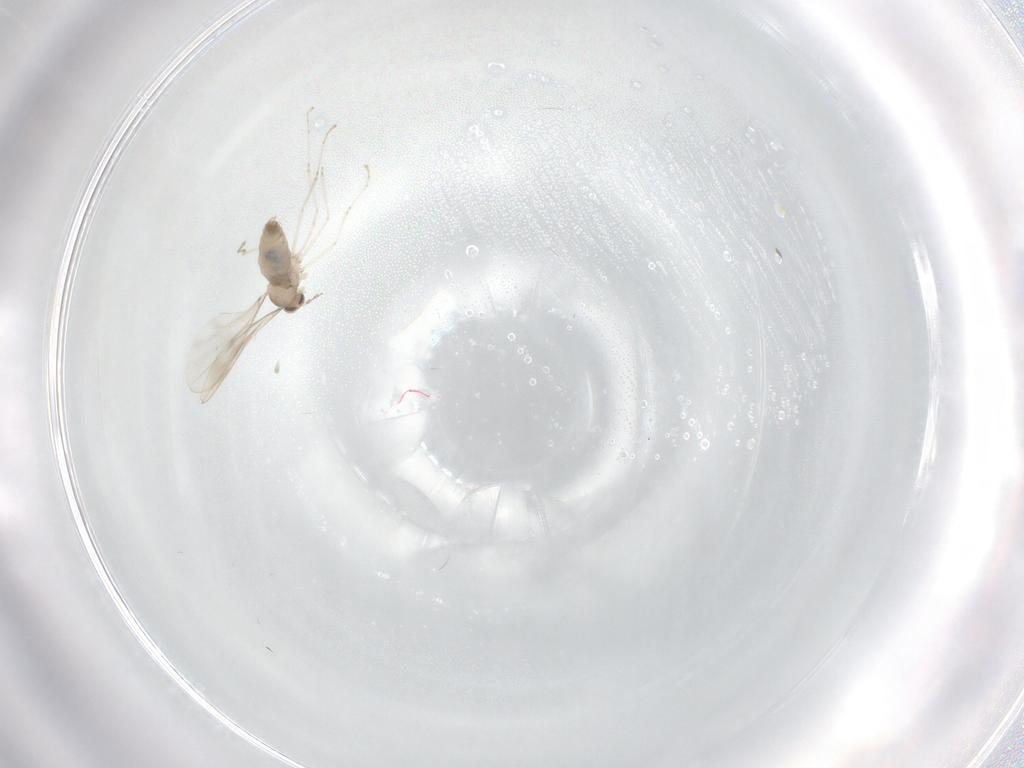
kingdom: Animalia
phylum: Arthropoda
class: Insecta
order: Diptera
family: Cecidomyiidae
